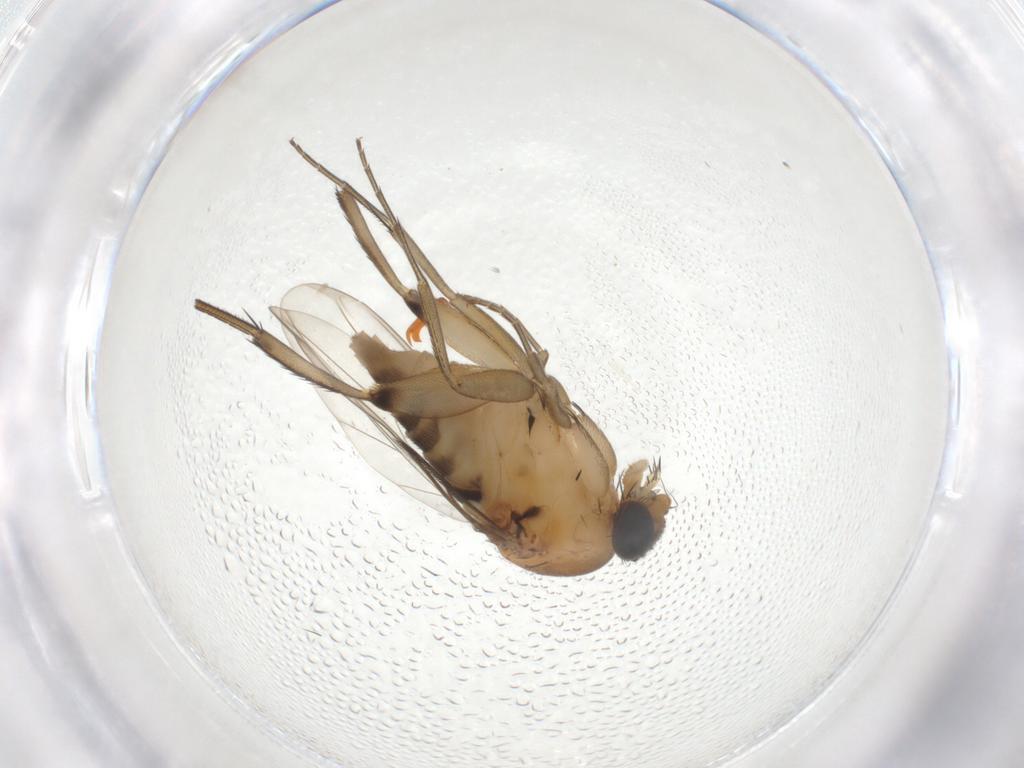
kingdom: Animalia
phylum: Arthropoda
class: Insecta
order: Diptera
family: Phoridae
